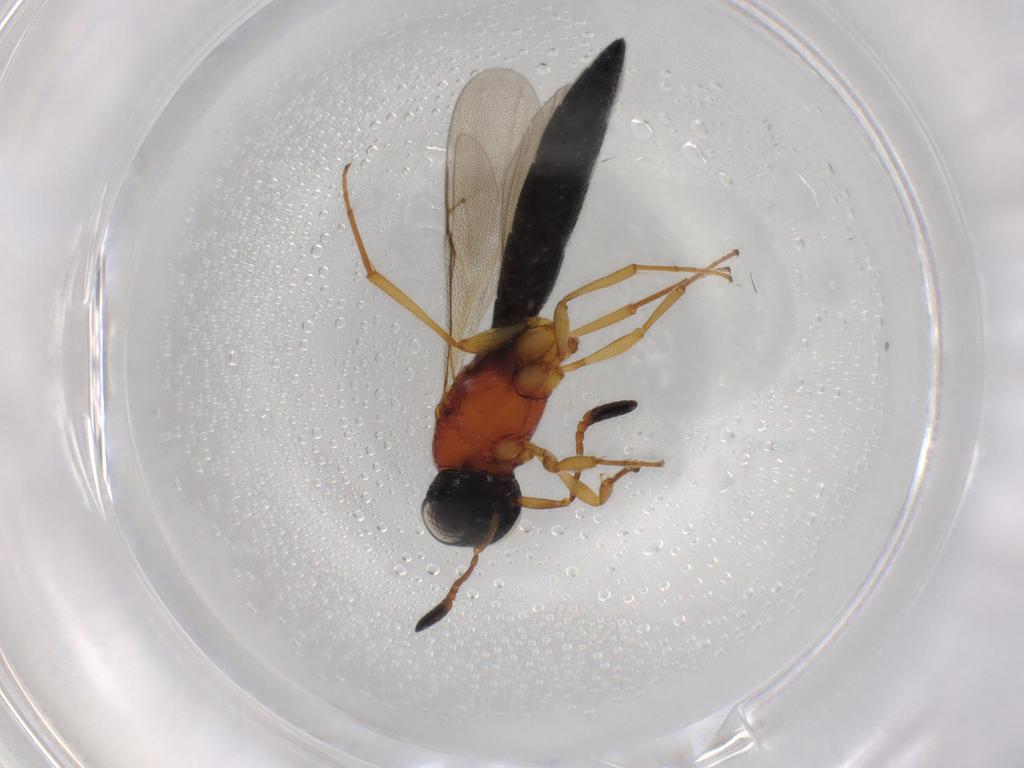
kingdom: Animalia
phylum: Arthropoda
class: Insecta
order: Hymenoptera
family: Scelionidae
